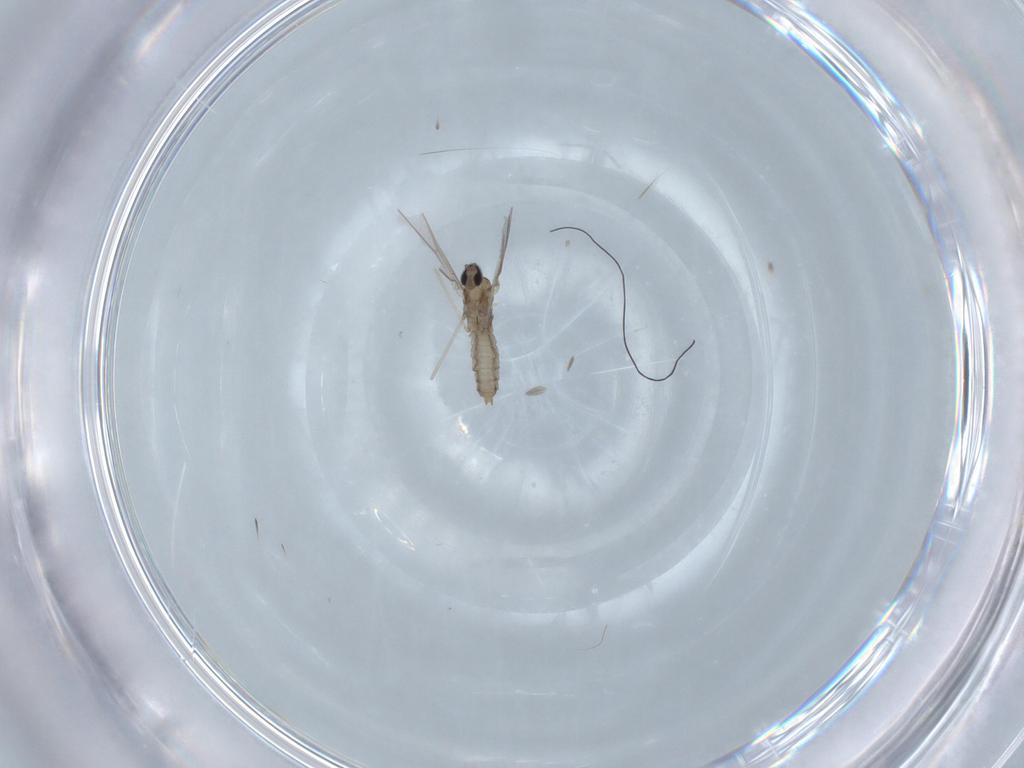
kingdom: Animalia
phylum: Arthropoda
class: Insecta
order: Diptera
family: Cecidomyiidae
